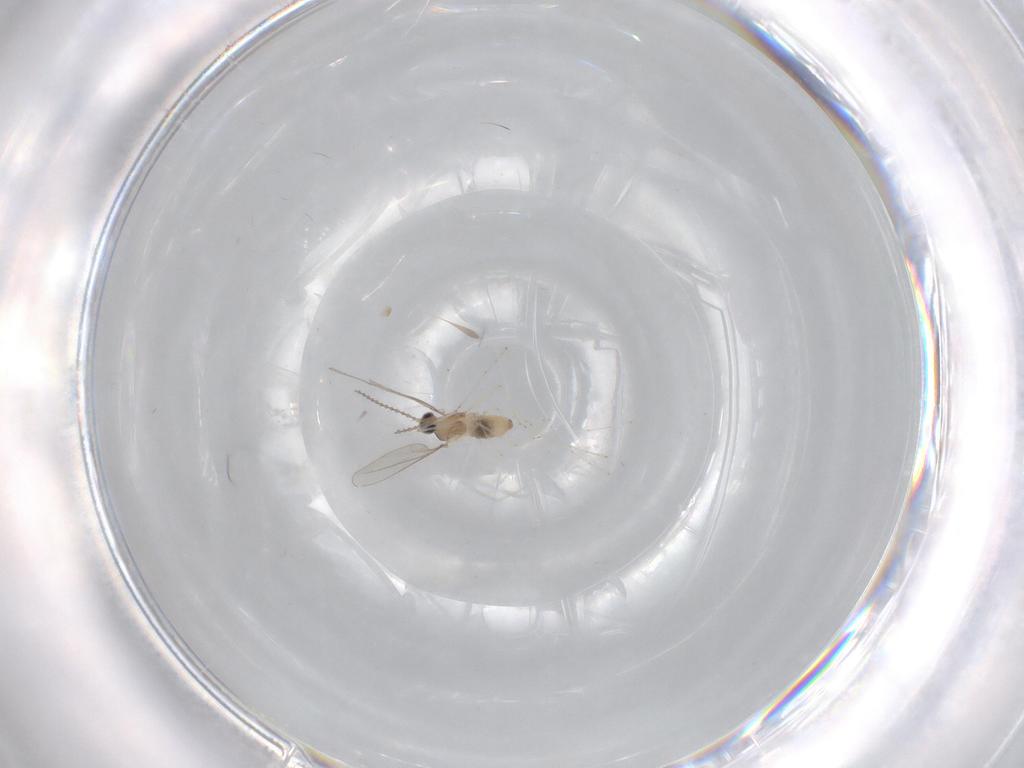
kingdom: Animalia
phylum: Arthropoda
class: Insecta
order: Diptera
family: Cecidomyiidae
